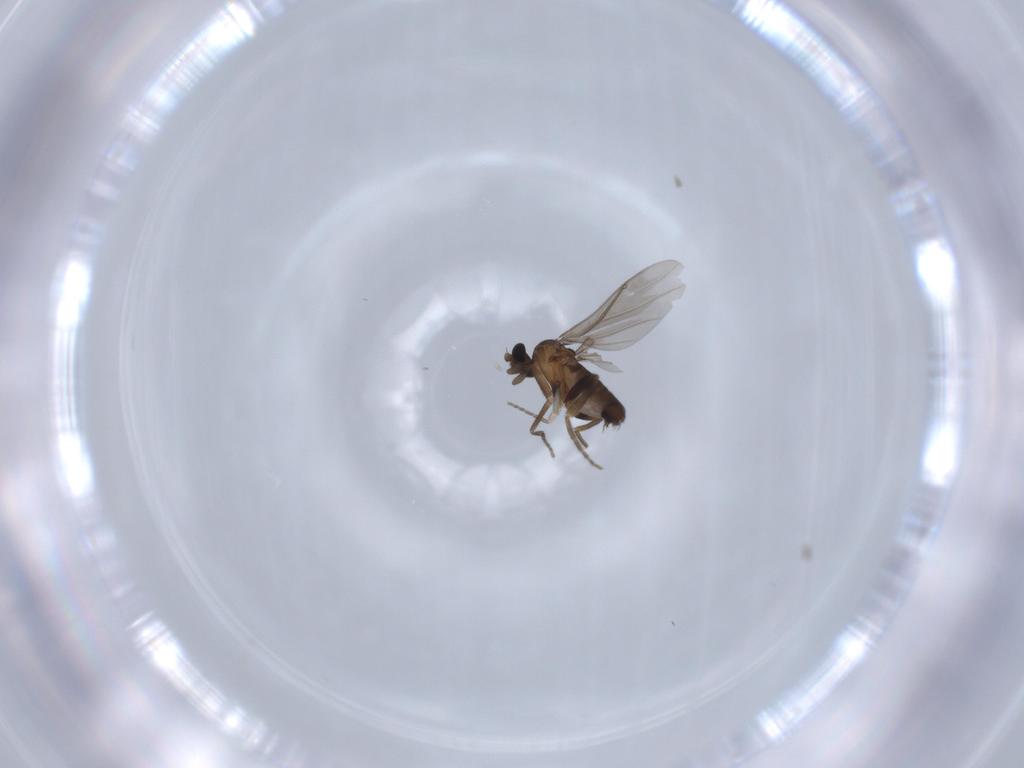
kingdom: Animalia
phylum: Arthropoda
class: Insecta
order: Diptera
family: Phoridae
